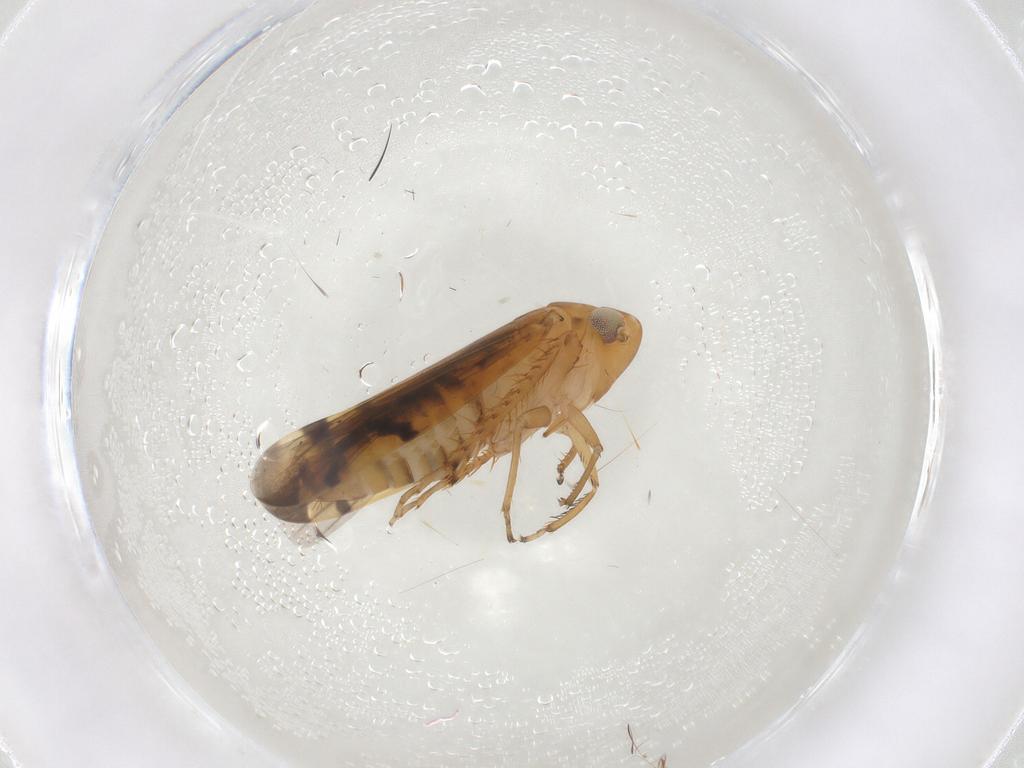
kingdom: Animalia
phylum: Arthropoda
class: Insecta
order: Hemiptera
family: Cicadellidae
